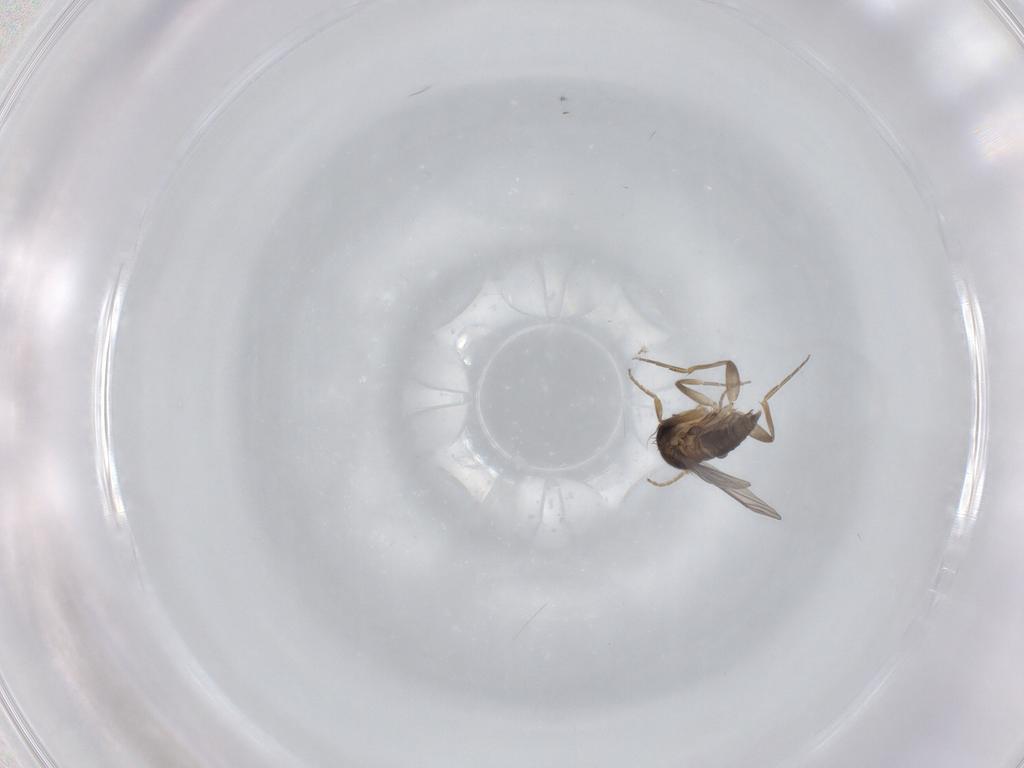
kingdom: Animalia
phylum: Arthropoda
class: Insecta
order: Diptera
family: Phoridae
